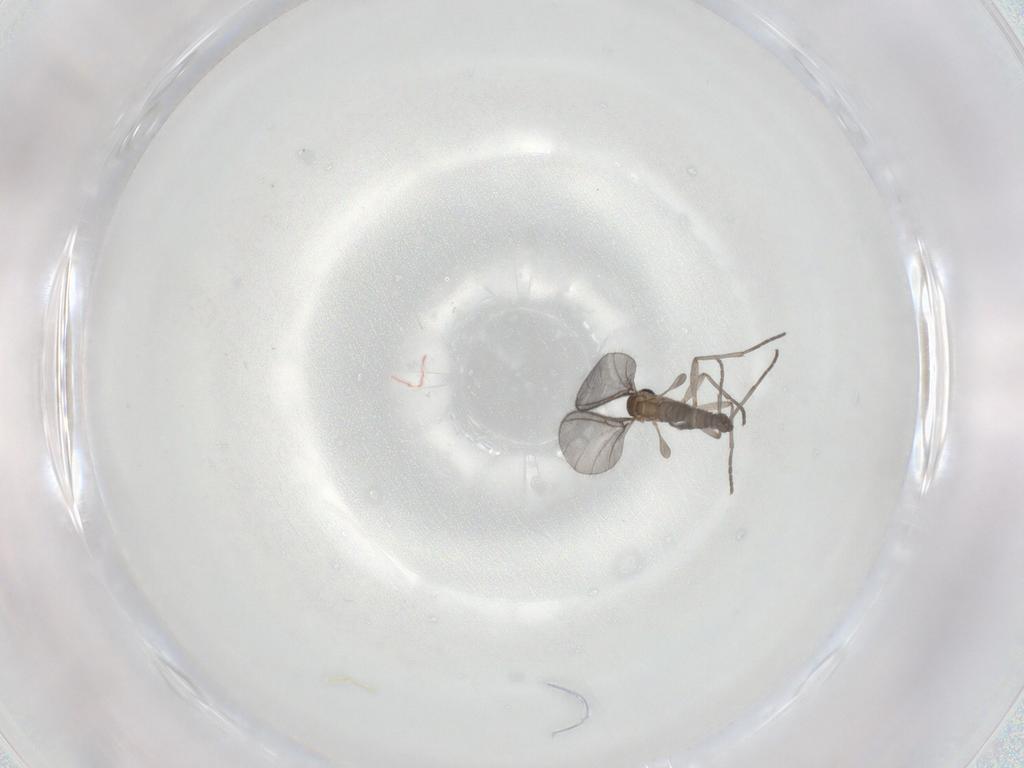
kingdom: Animalia
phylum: Arthropoda
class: Insecta
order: Diptera
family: Sciaridae
